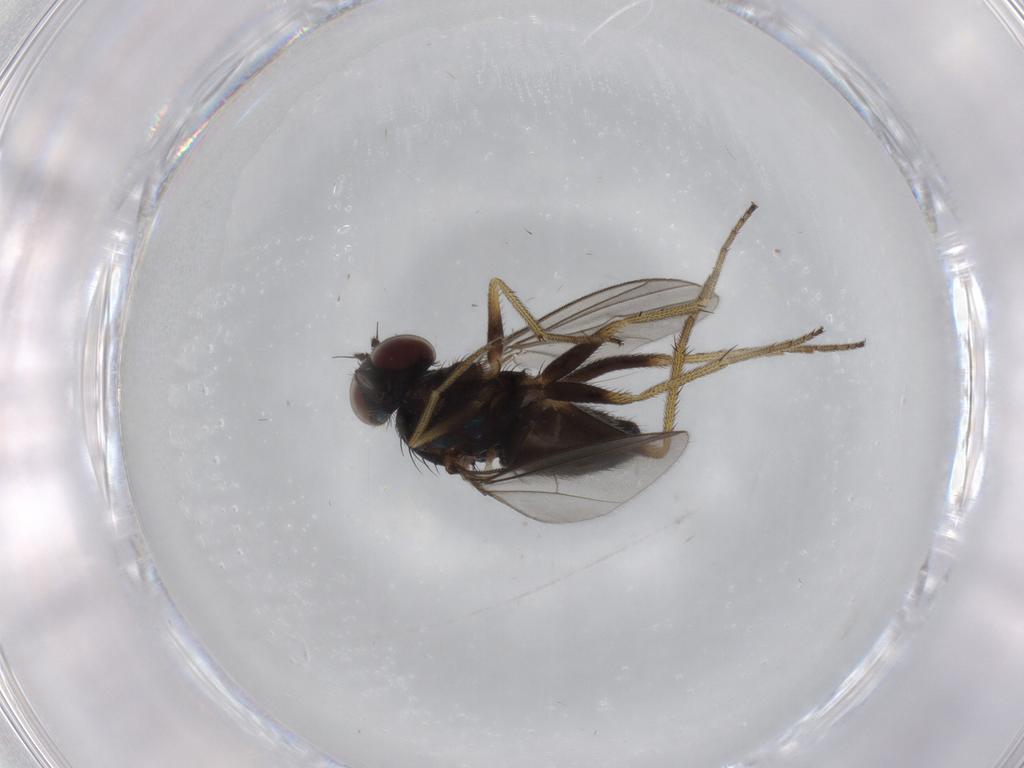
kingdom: Animalia
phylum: Arthropoda
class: Insecta
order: Diptera
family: Dolichopodidae
